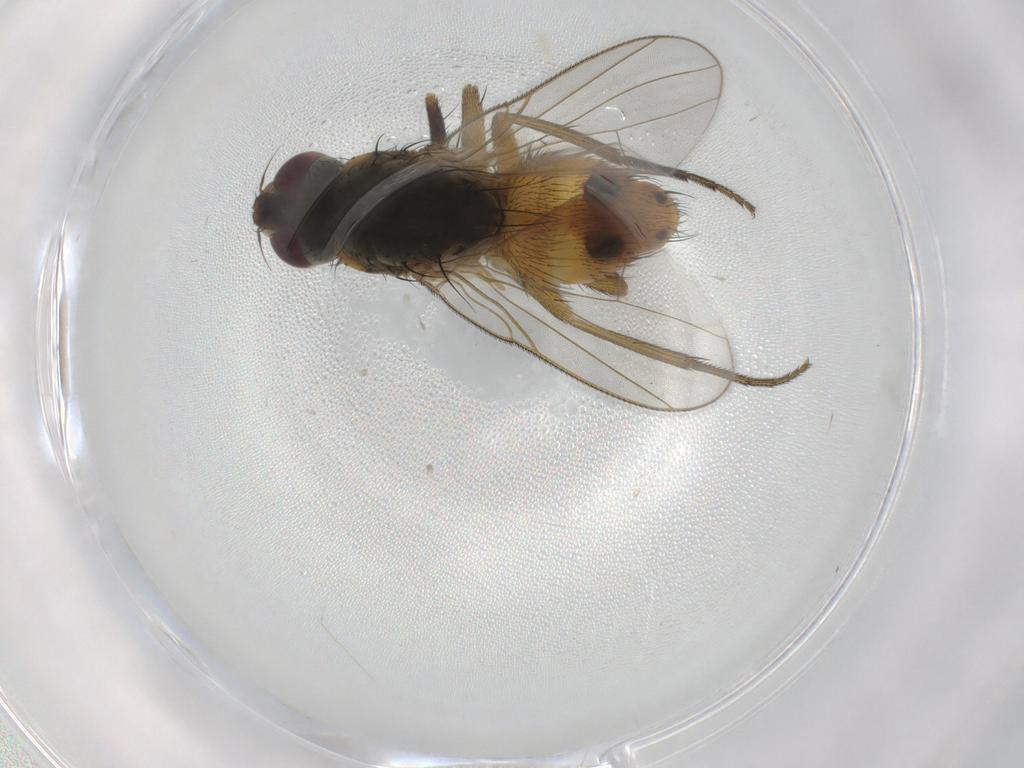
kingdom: Animalia
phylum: Arthropoda
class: Insecta
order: Diptera
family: Muscidae
